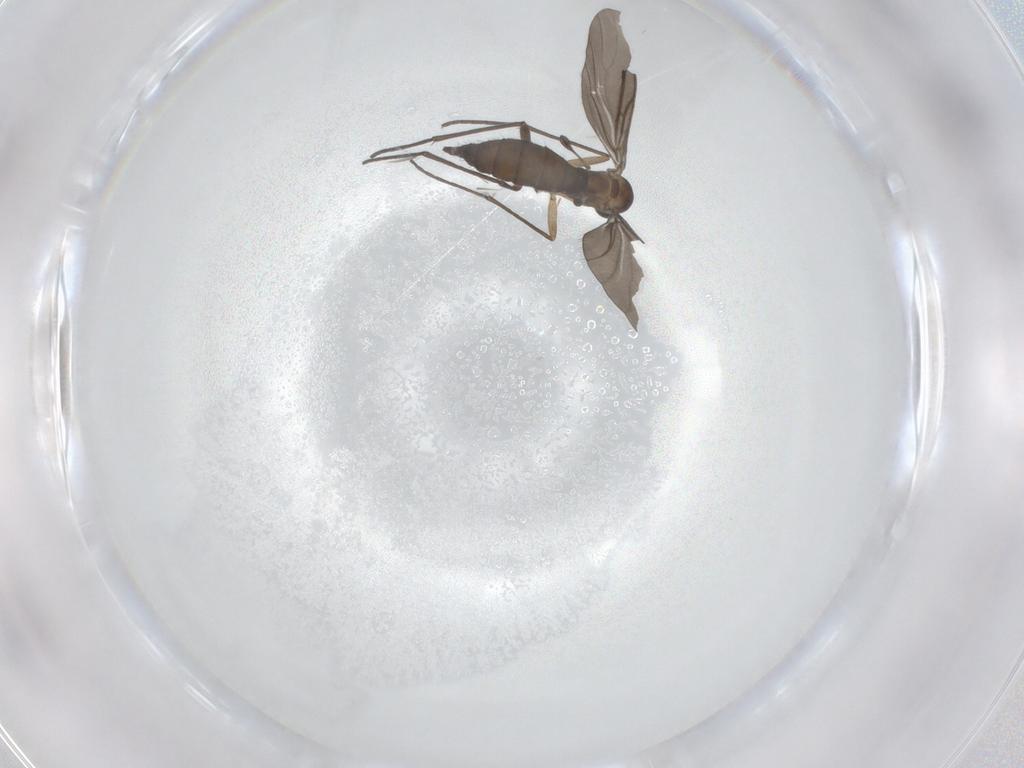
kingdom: Animalia
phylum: Arthropoda
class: Insecta
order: Diptera
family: Sciaridae
